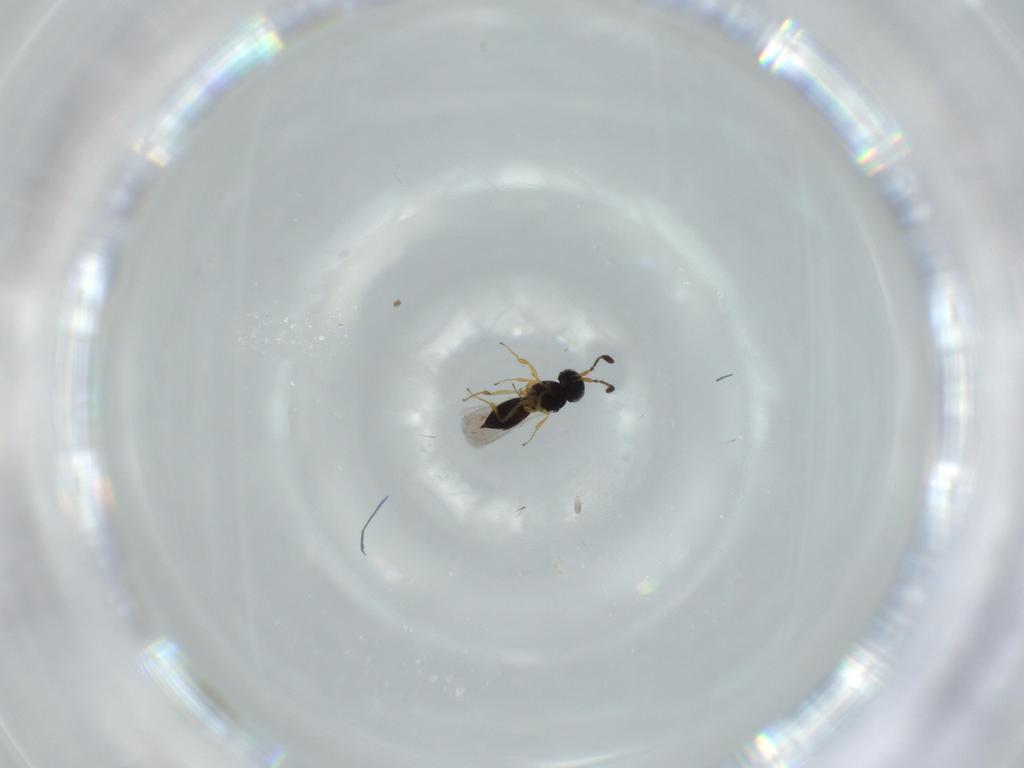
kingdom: Animalia
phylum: Arthropoda
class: Insecta
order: Hymenoptera
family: Scelionidae
